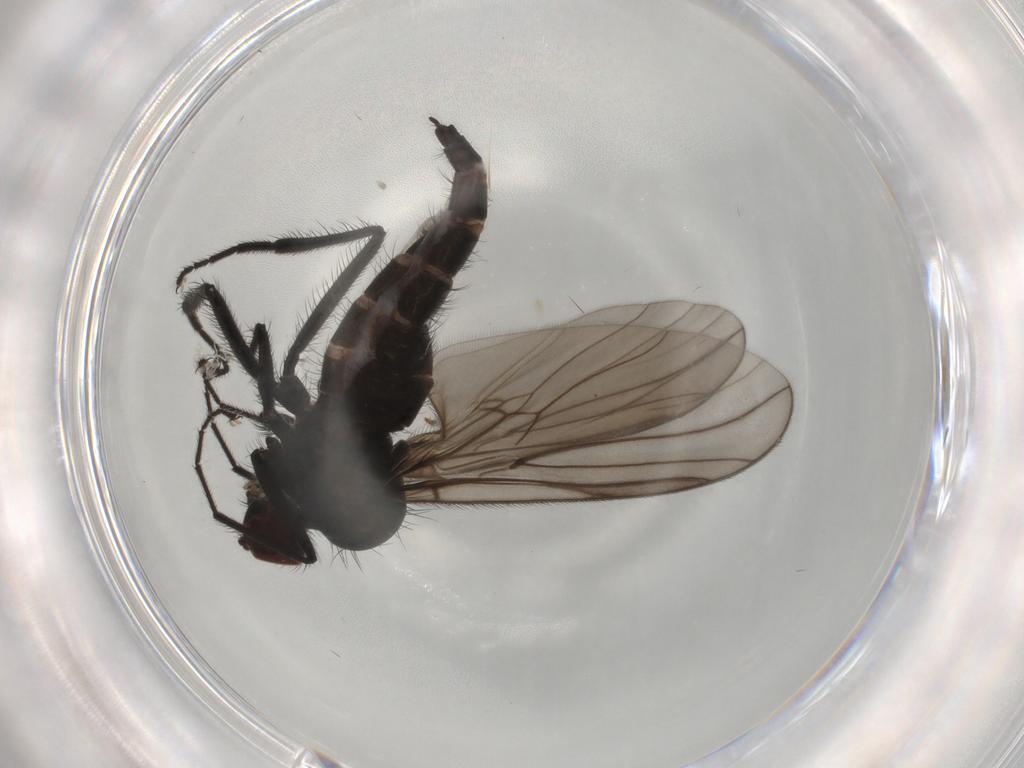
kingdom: Animalia
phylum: Arthropoda
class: Insecta
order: Diptera
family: Hybotidae
